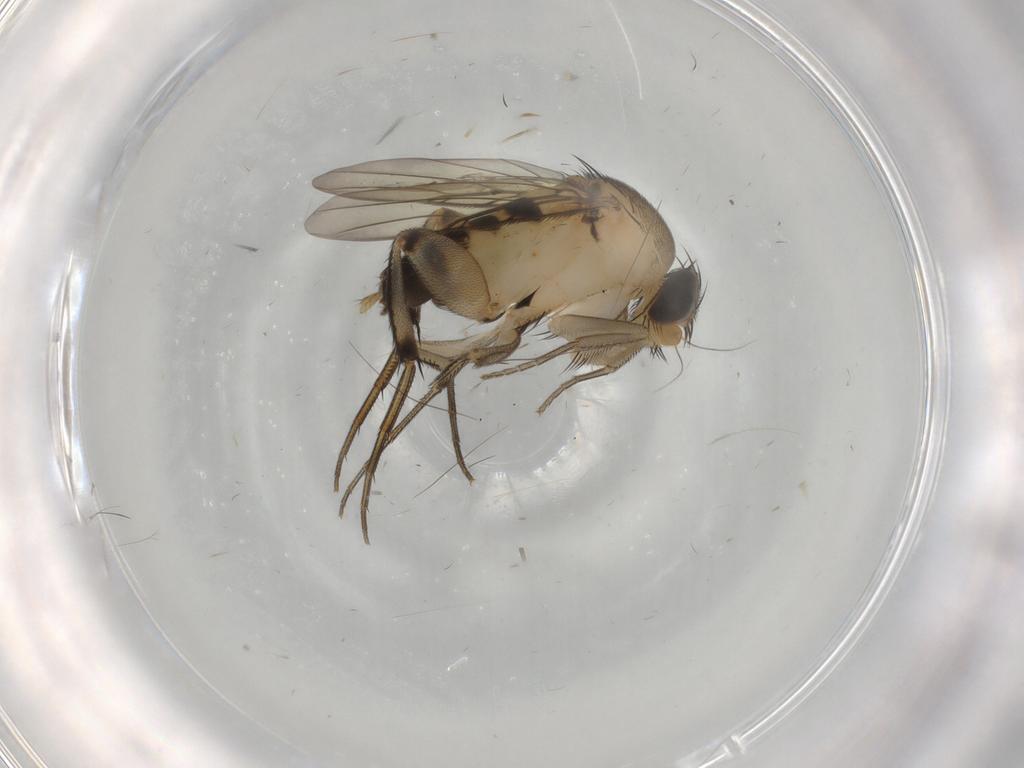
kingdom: Animalia
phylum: Arthropoda
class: Insecta
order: Diptera
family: Phoridae
